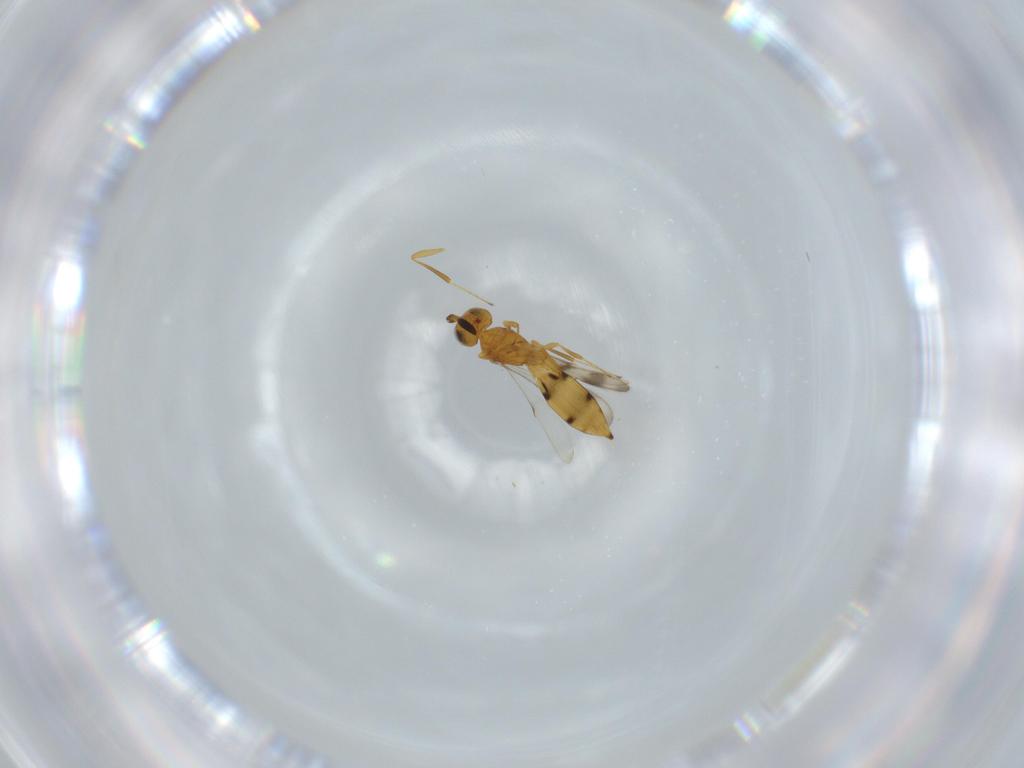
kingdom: Animalia
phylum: Arthropoda
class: Insecta
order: Hymenoptera
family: Scelionidae
